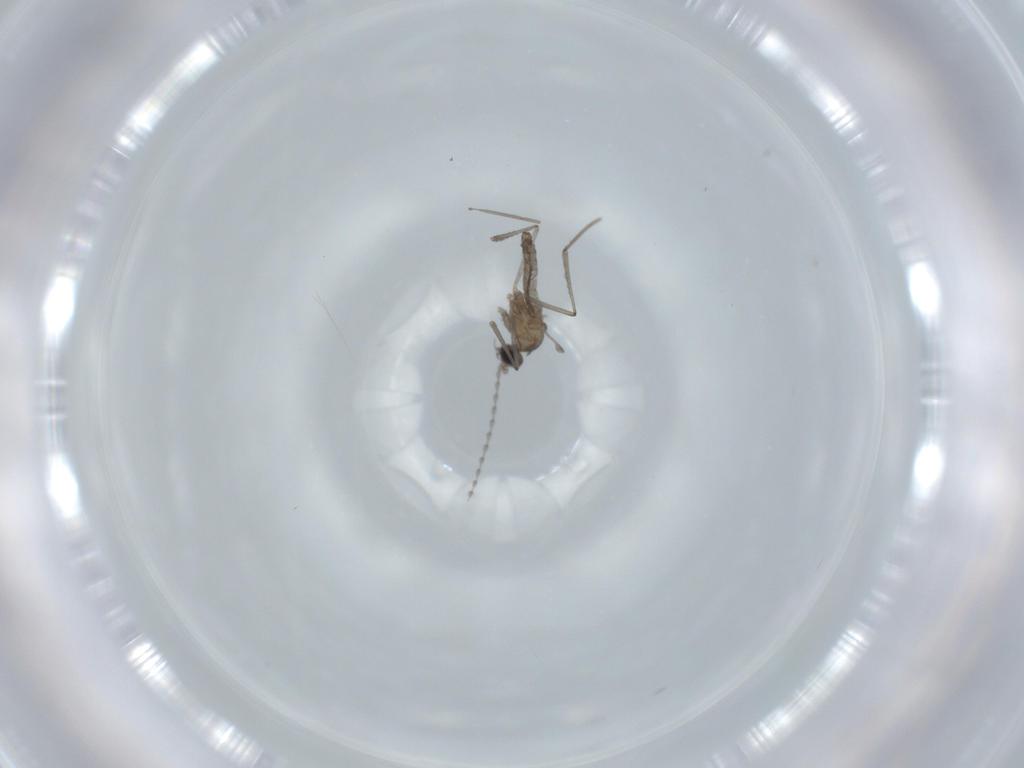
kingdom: Animalia
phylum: Arthropoda
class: Insecta
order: Diptera
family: Cecidomyiidae
